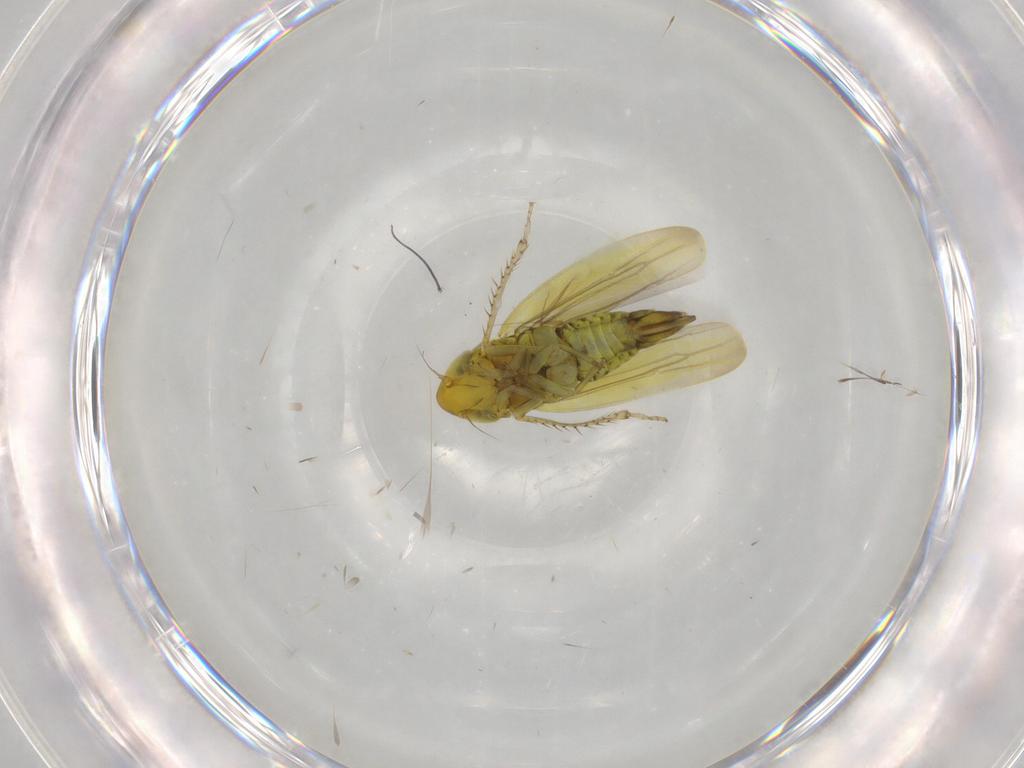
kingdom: Animalia
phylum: Arthropoda
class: Insecta
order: Hemiptera
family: Cicadellidae
